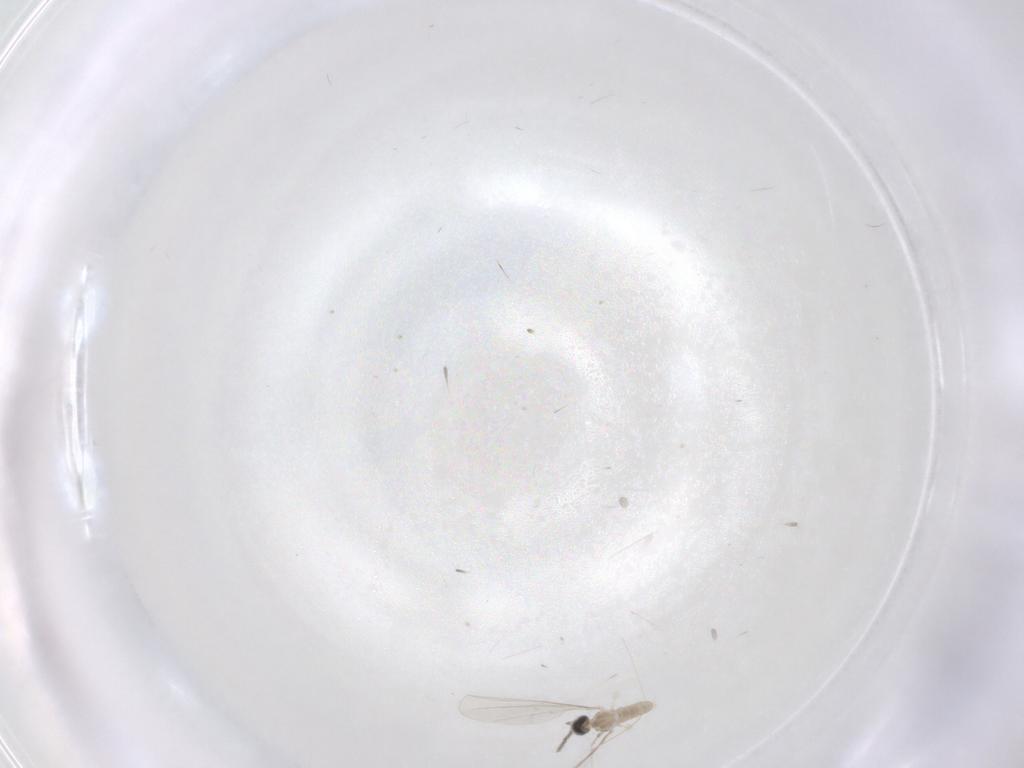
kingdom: Animalia
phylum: Arthropoda
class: Insecta
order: Diptera
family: Cecidomyiidae
